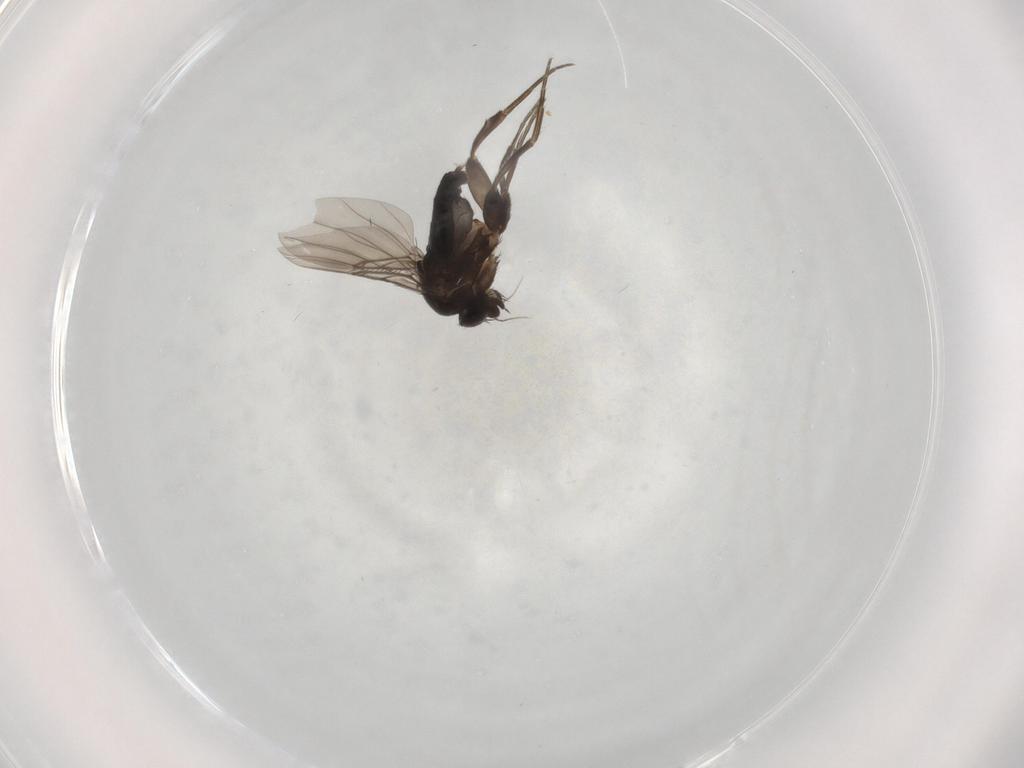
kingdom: Animalia
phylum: Arthropoda
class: Insecta
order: Diptera
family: Phoridae
